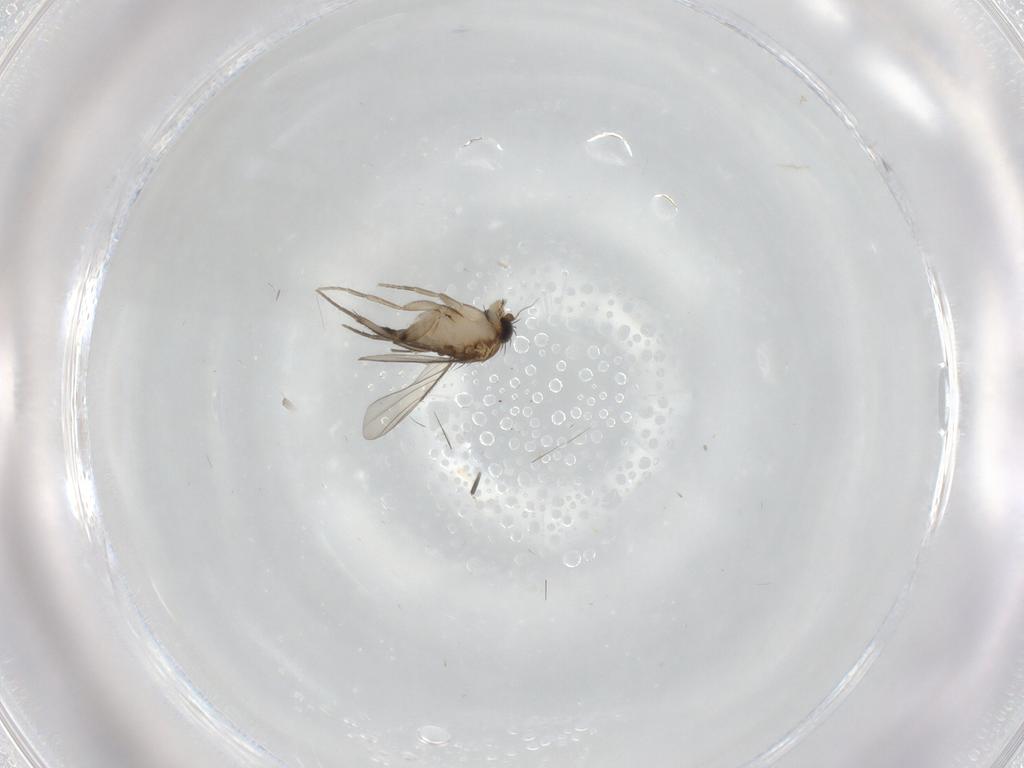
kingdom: Animalia
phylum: Arthropoda
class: Insecta
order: Diptera
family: Phoridae
